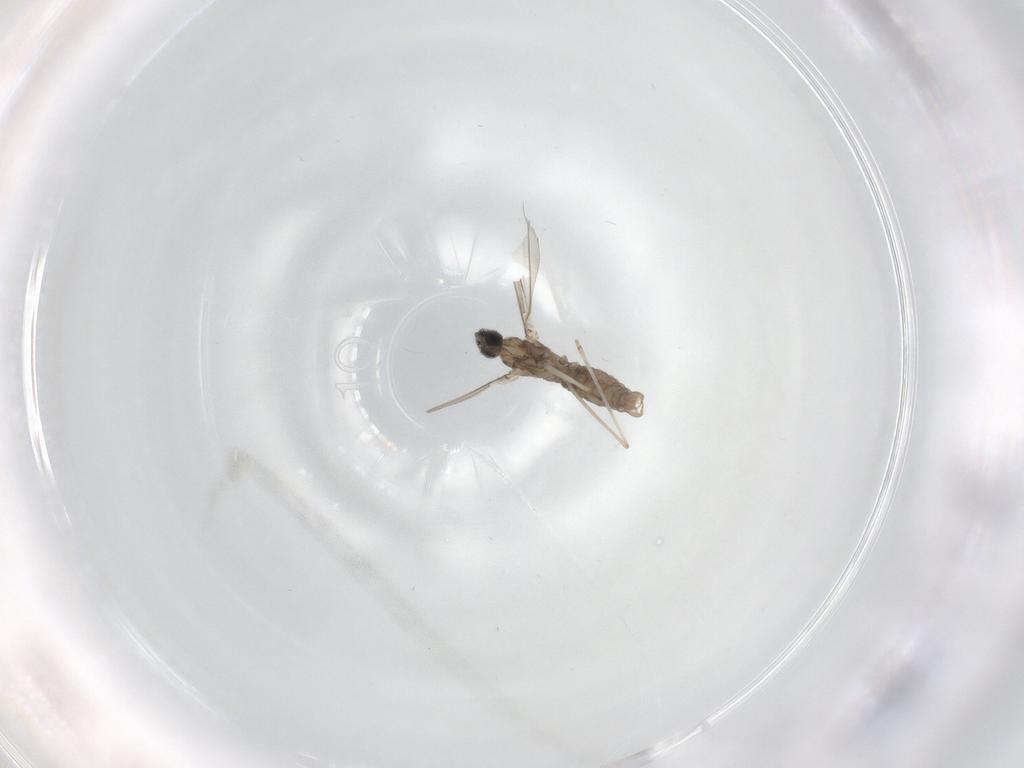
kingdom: Animalia
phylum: Arthropoda
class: Insecta
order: Diptera
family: Cecidomyiidae
